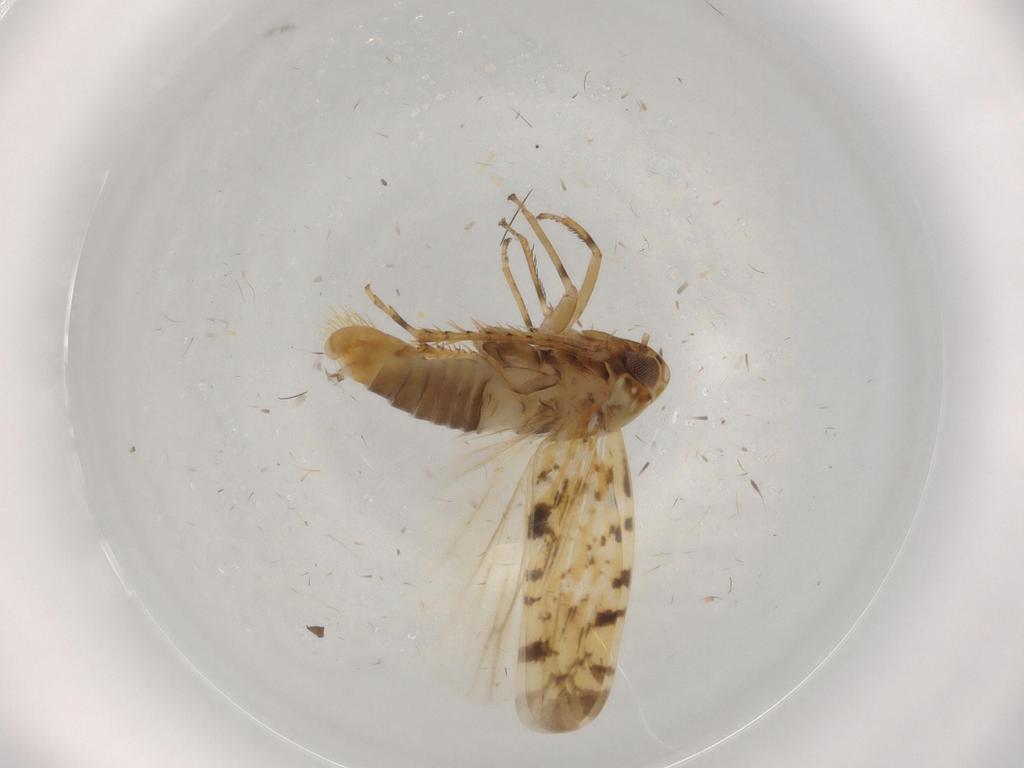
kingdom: Animalia
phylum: Arthropoda
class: Insecta
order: Hemiptera
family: Cicadellidae
